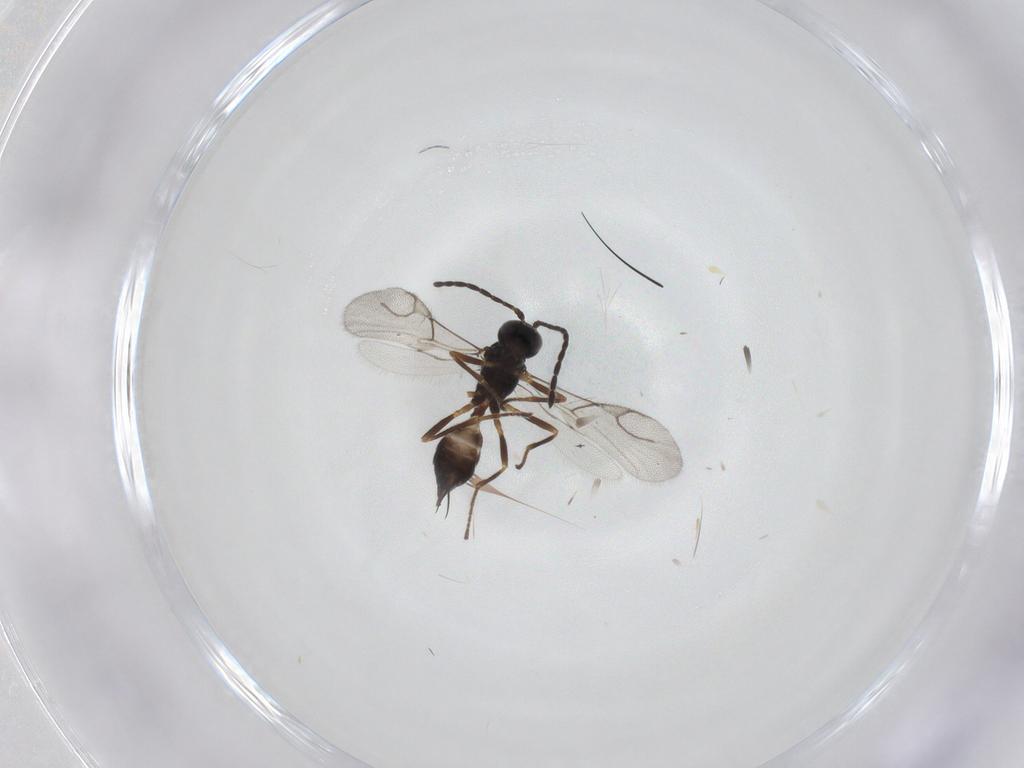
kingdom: Animalia
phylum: Arthropoda
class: Insecta
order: Hymenoptera
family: Braconidae
